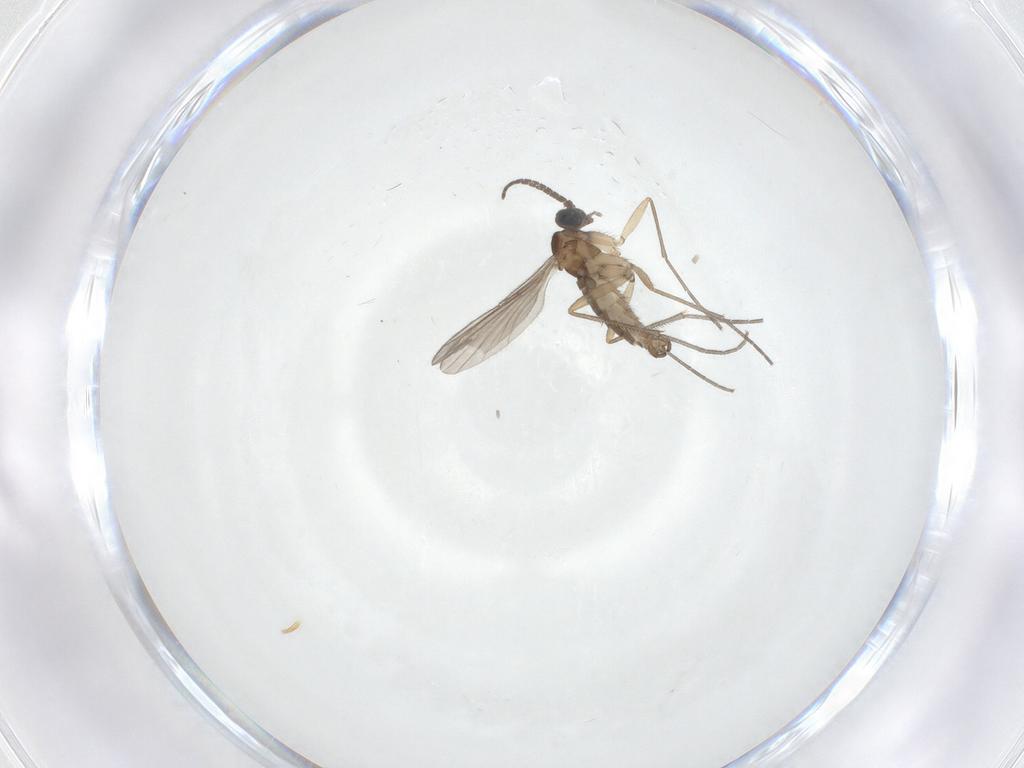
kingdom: Animalia
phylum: Arthropoda
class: Insecta
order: Diptera
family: Sciaridae
